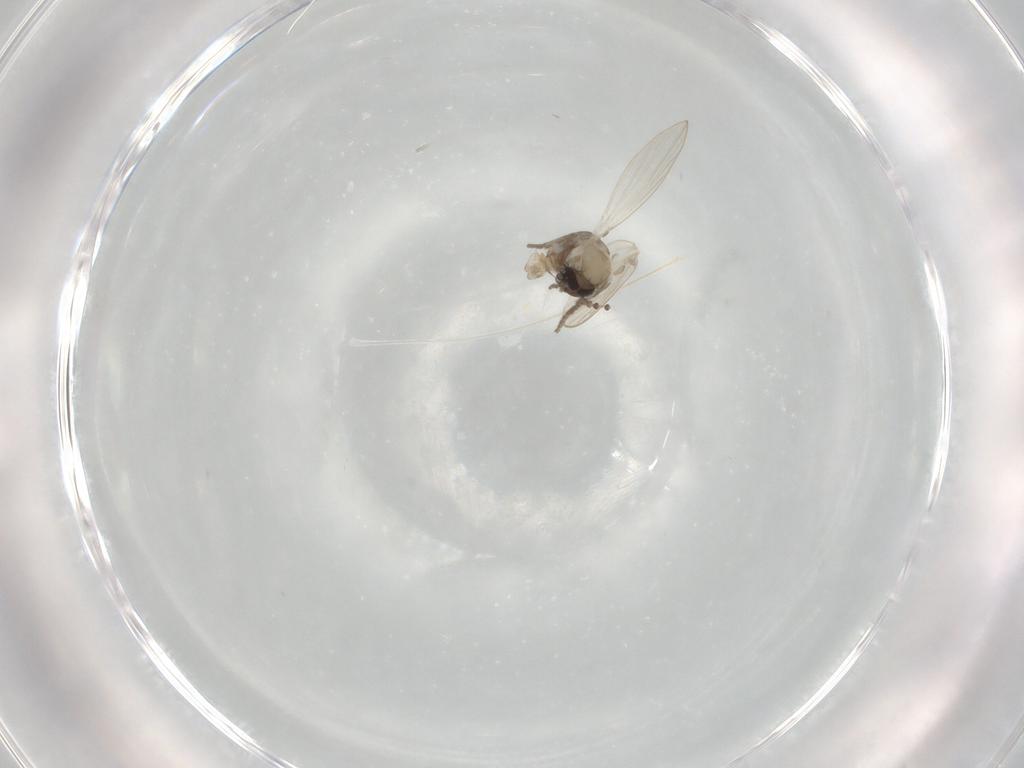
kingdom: Animalia
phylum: Arthropoda
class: Insecta
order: Diptera
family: Psychodidae
